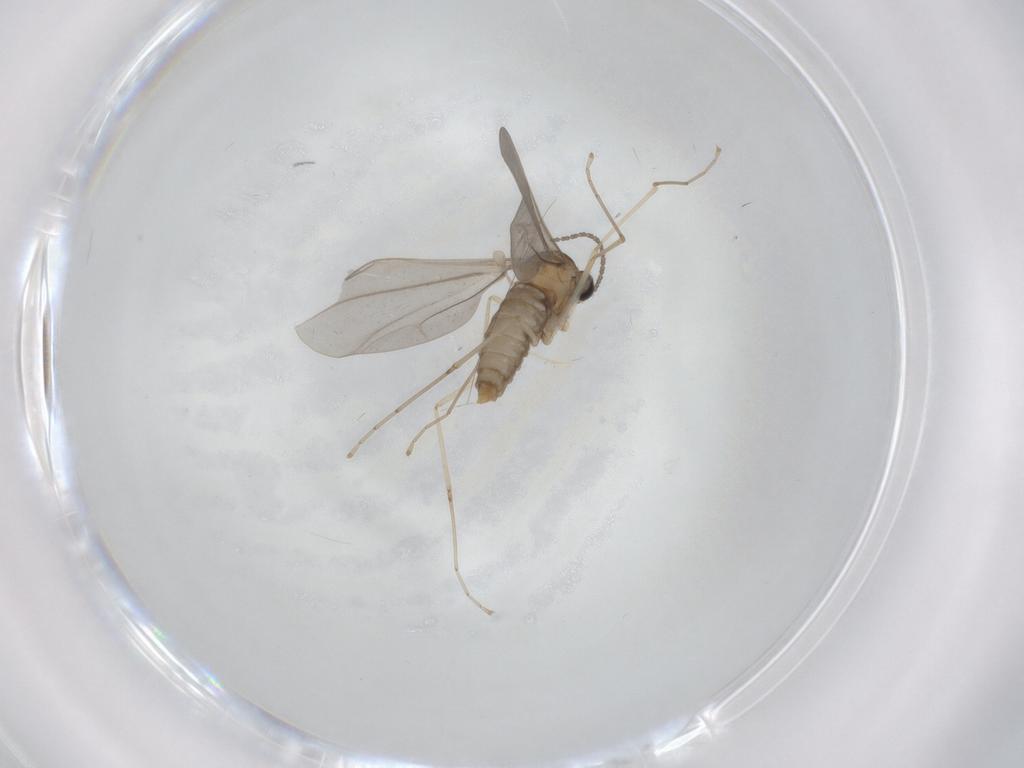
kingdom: Animalia
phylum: Arthropoda
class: Insecta
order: Diptera
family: Cecidomyiidae
